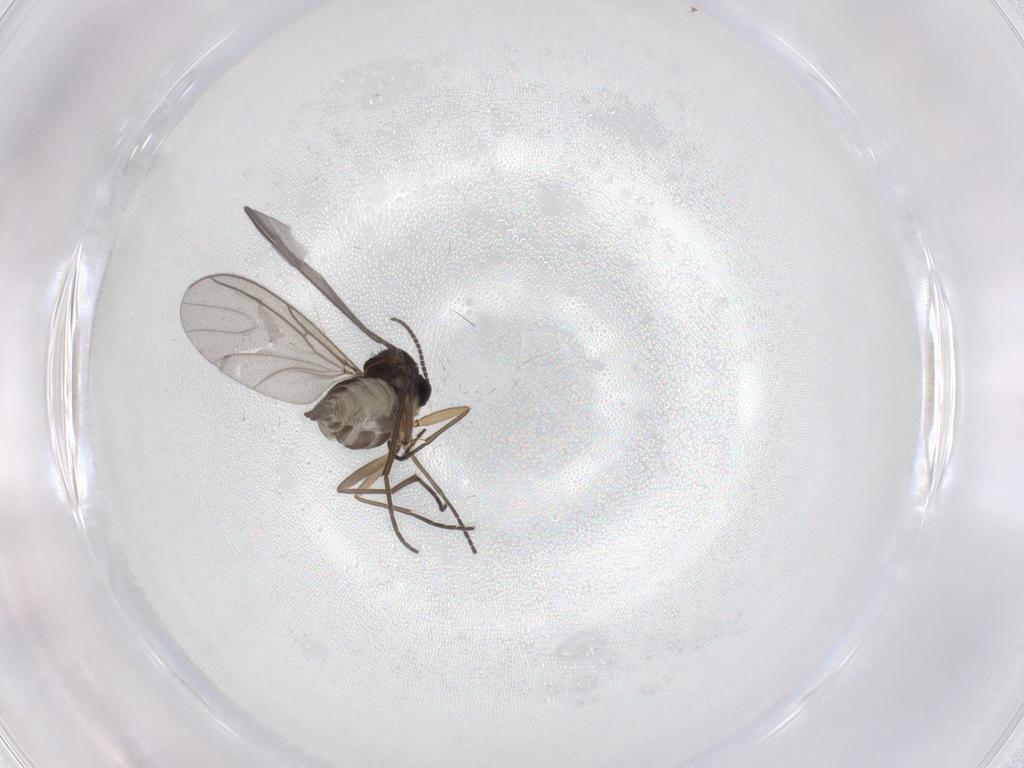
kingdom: Animalia
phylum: Arthropoda
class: Insecta
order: Diptera
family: Sciaridae
